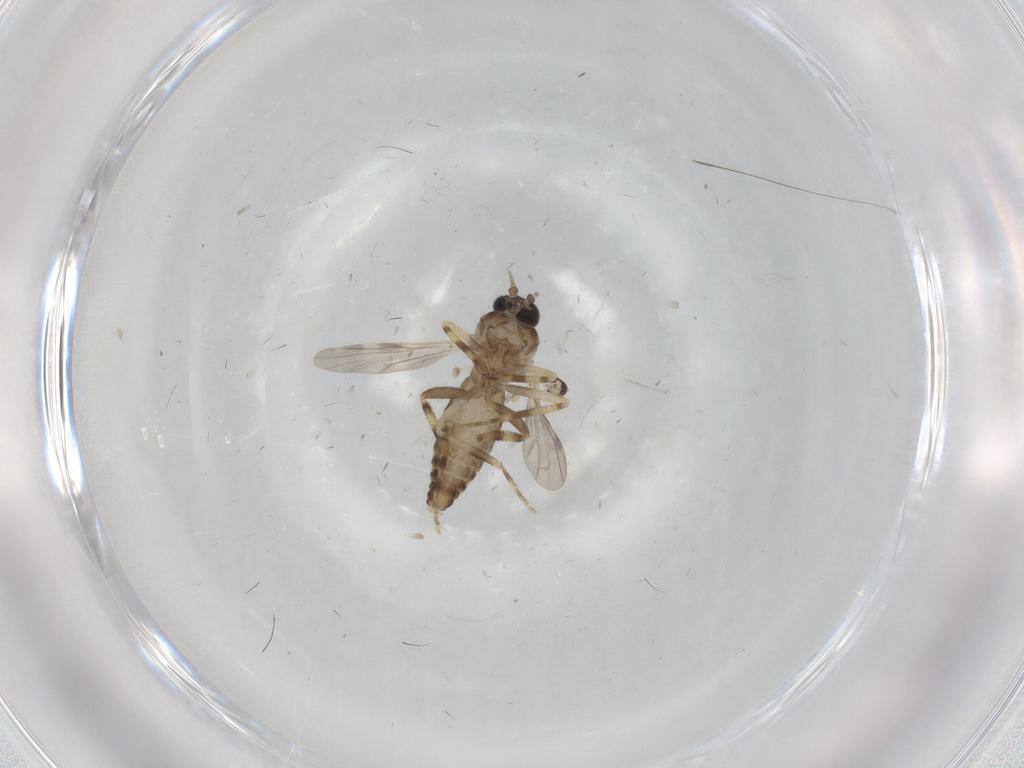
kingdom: Animalia
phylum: Arthropoda
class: Insecta
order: Diptera
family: Ceratopogonidae
